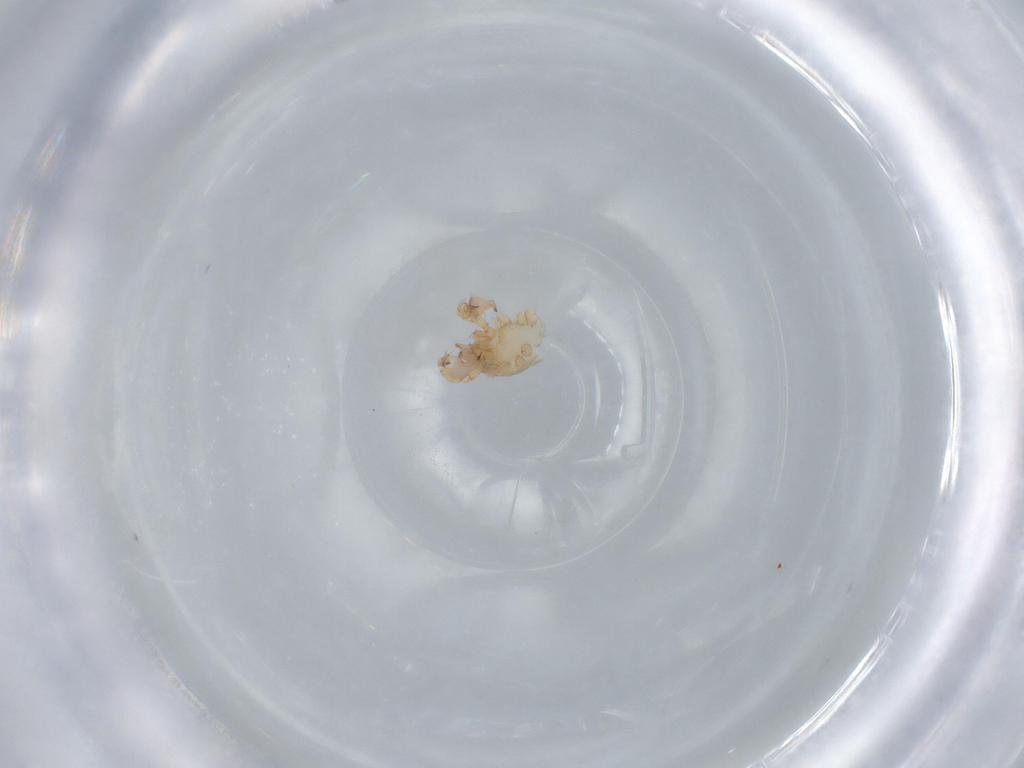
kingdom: Animalia
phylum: Arthropoda
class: Arachnida
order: Araneae
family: Oonopidae
